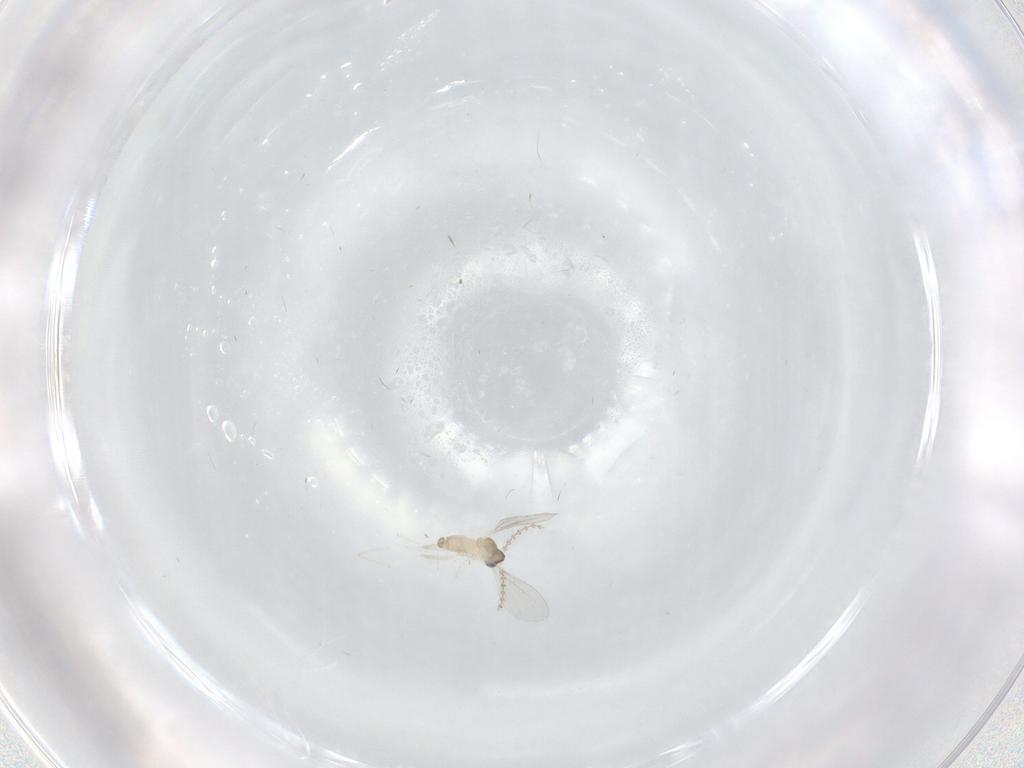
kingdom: Animalia
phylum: Arthropoda
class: Insecta
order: Diptera
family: Cecidomyiidae
